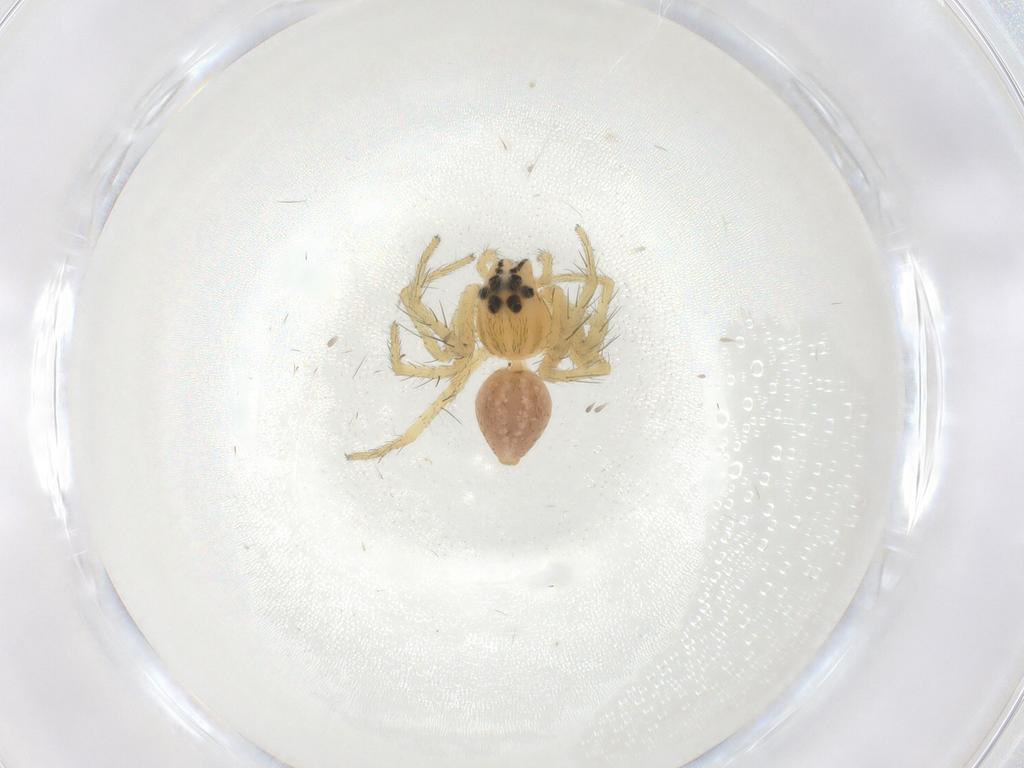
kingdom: Animalia
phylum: Arthropoda
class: Arachnida
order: Araneae
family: Oxyopidae
